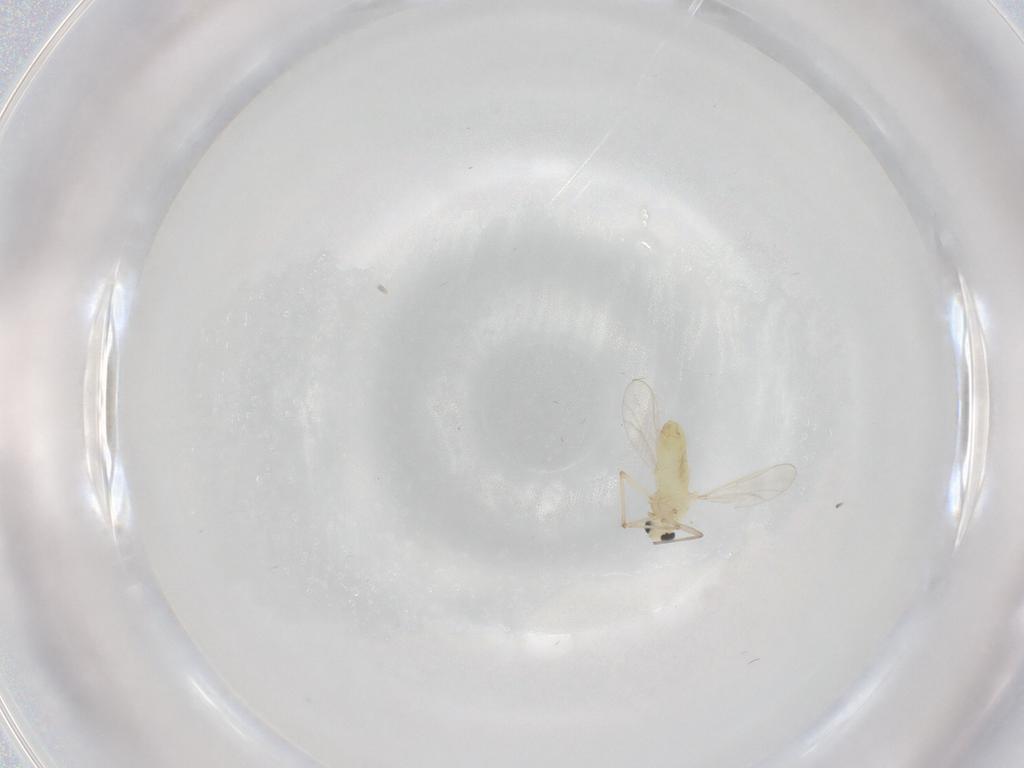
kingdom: Animalia
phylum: Arthropoda
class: Insecta
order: Diptera
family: Chironomidae
